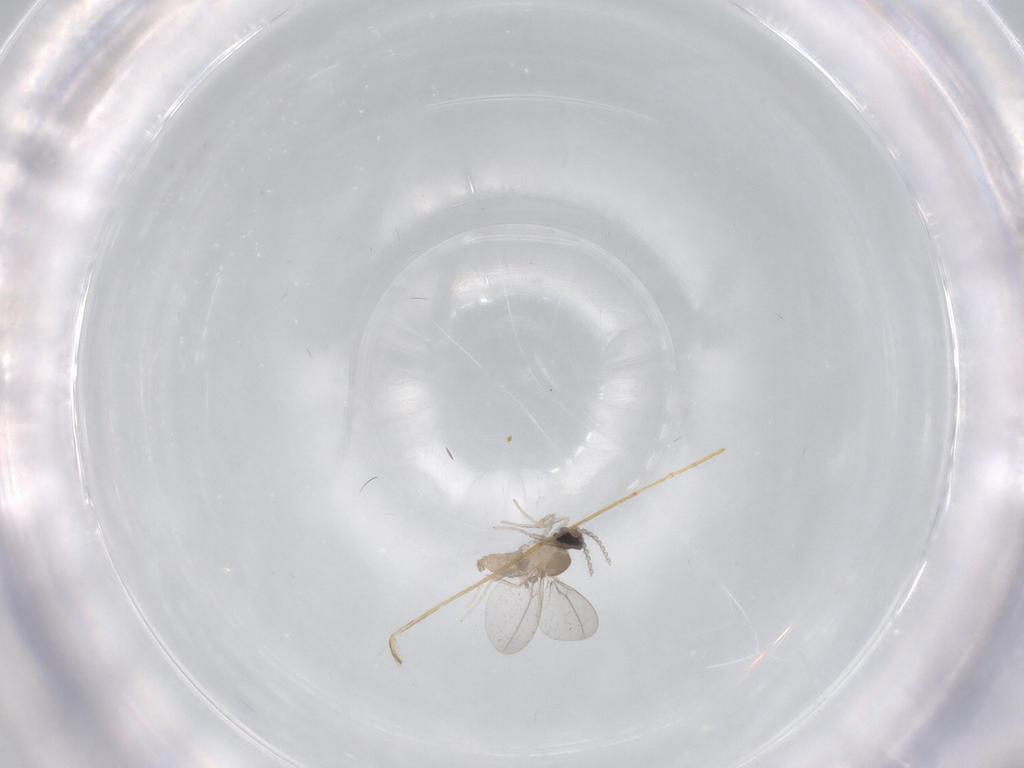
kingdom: Animalia
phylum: Arthropoda
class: Insecta
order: Diptera
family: Psychodidae
